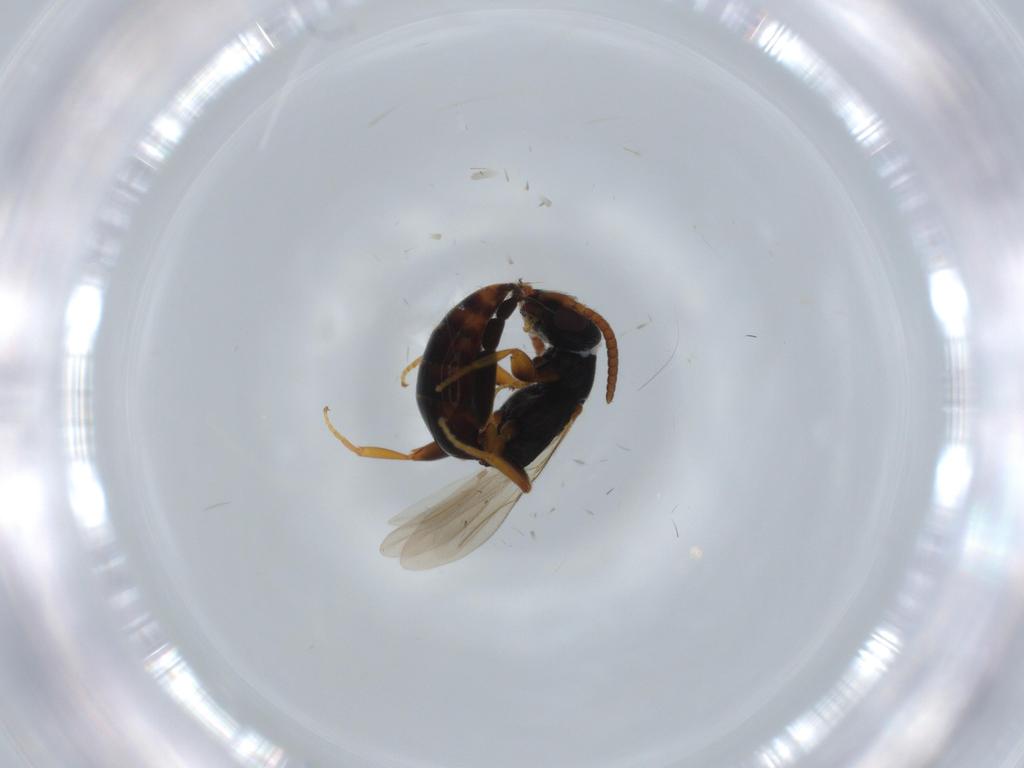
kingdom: Animalia
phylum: Arthropoda
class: Insecta
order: Hymenoptera
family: Bethylidae
